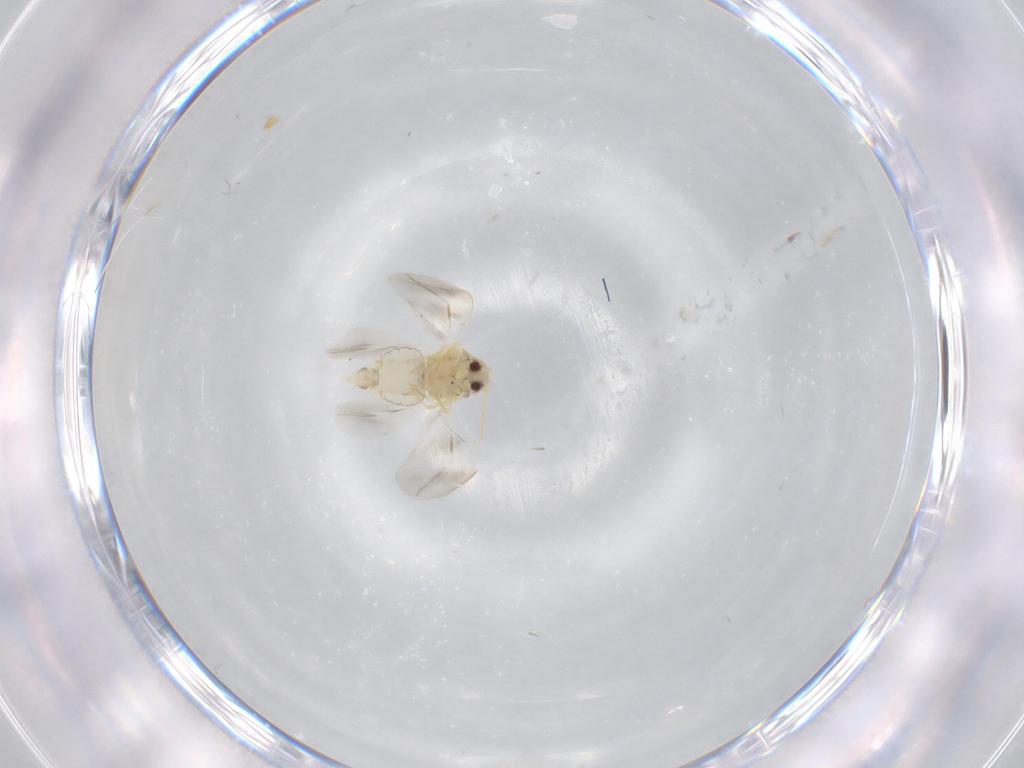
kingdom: Animalia
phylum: Arthropoda
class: Insecta
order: Hemiptera
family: Aleyrodidae
